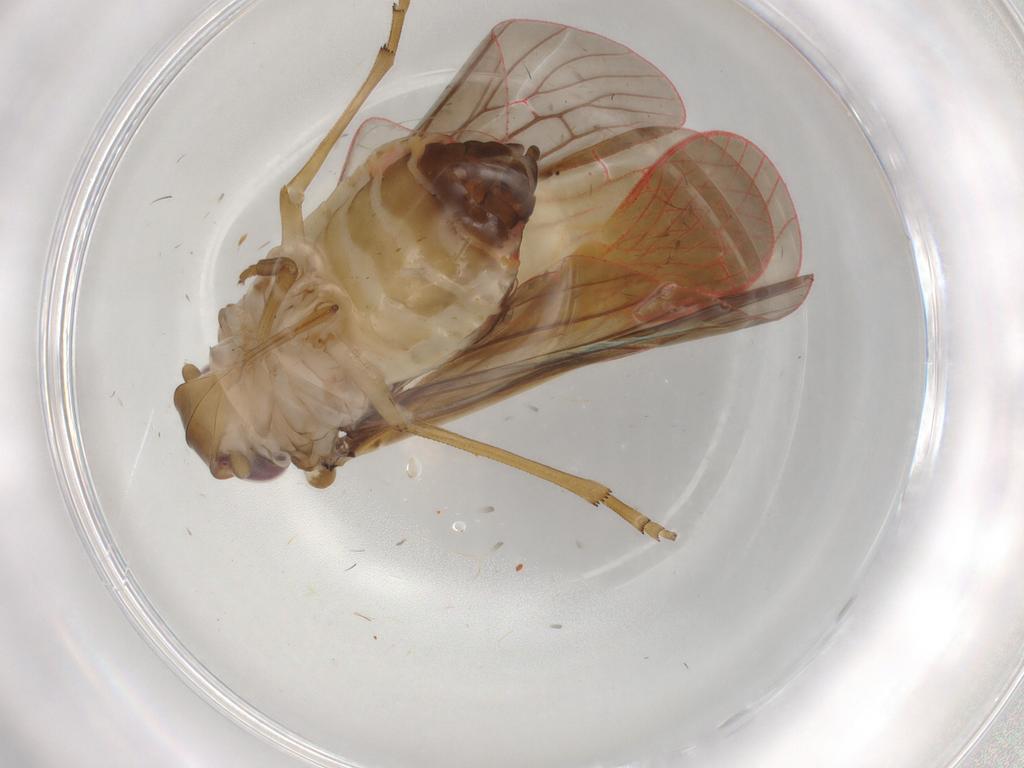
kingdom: Animalia
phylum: Arthropoda
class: Insecta
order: Hemiptera
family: Achilidae
